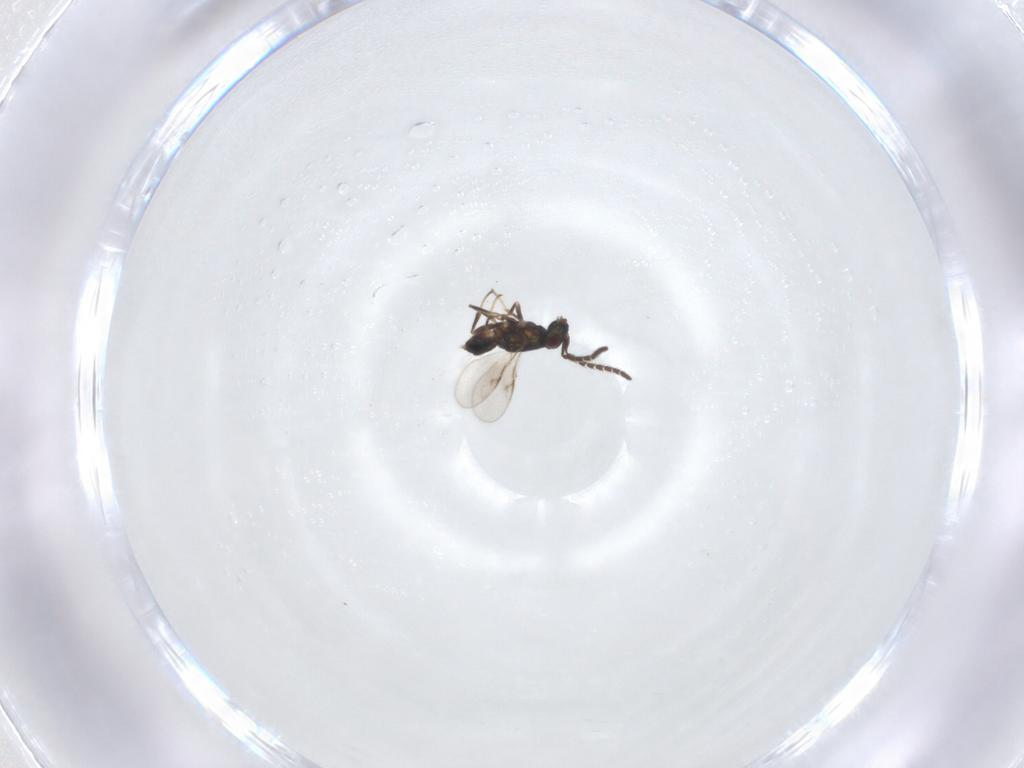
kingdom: Animalia
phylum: Arthropoda
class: Insecta
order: Hymenoptera
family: Encyrtidae
